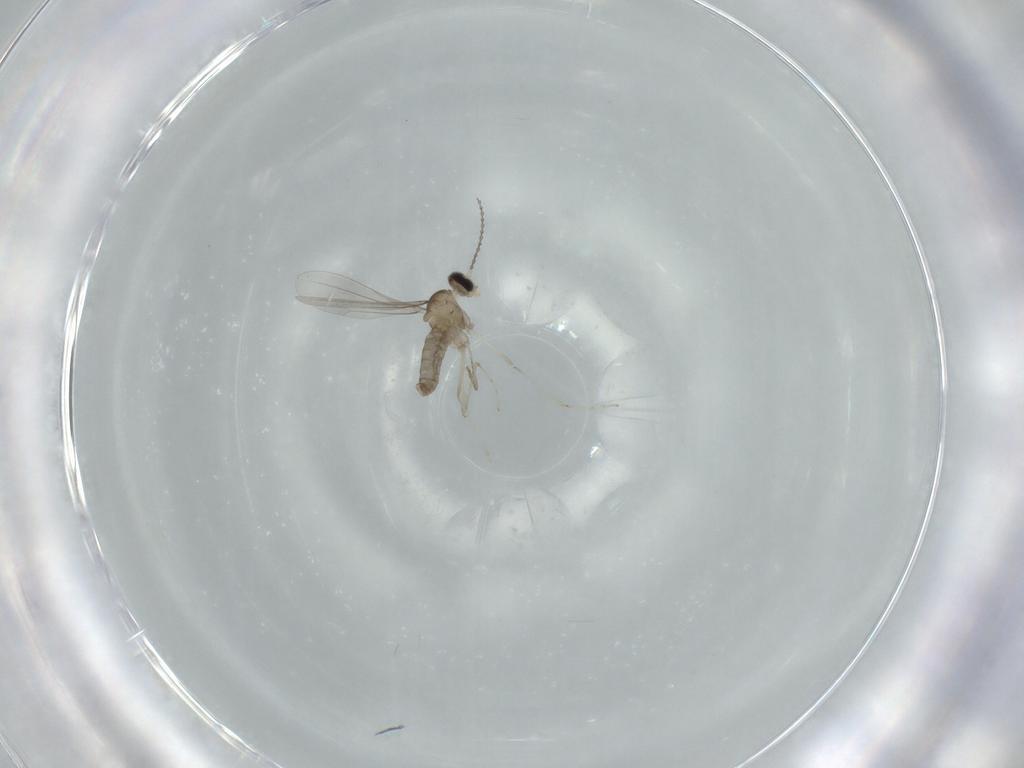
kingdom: Animalia
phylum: Arthropoda
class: Insecta
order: Diptera
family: Cecidomyiidae
